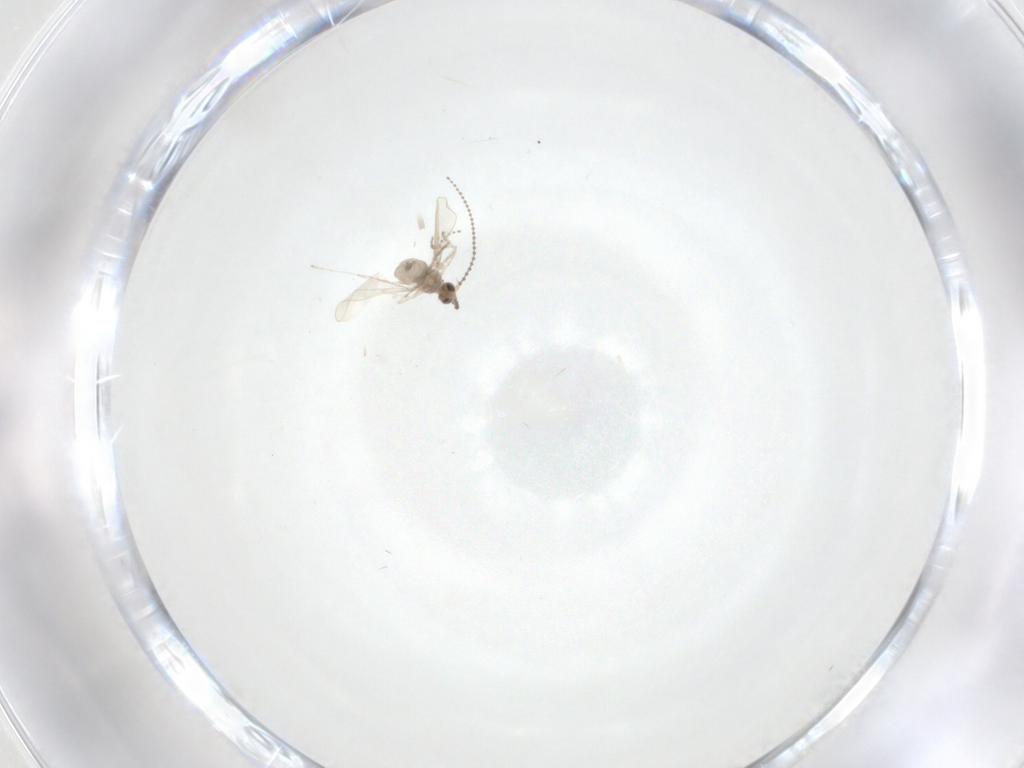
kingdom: Animalia
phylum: Arthropoda
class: Insecta
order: Diptera
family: Cecidomyiidae
